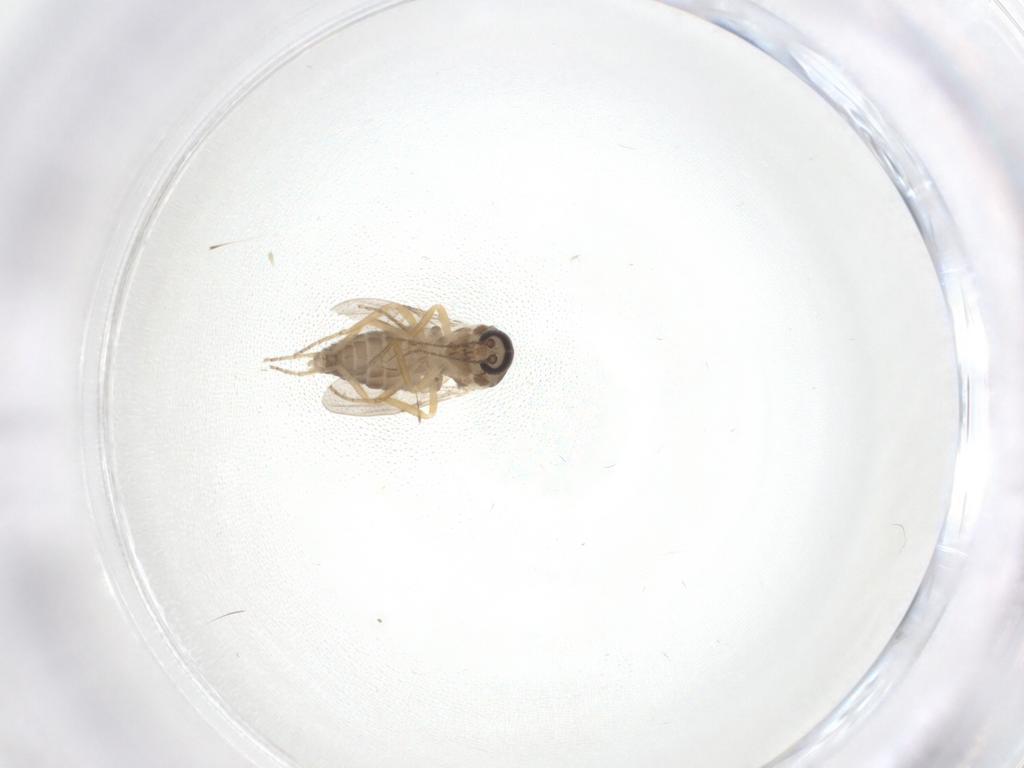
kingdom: Animalia
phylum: Arthropoda
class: Insecta
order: Diptera
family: Ceratopogonidae
